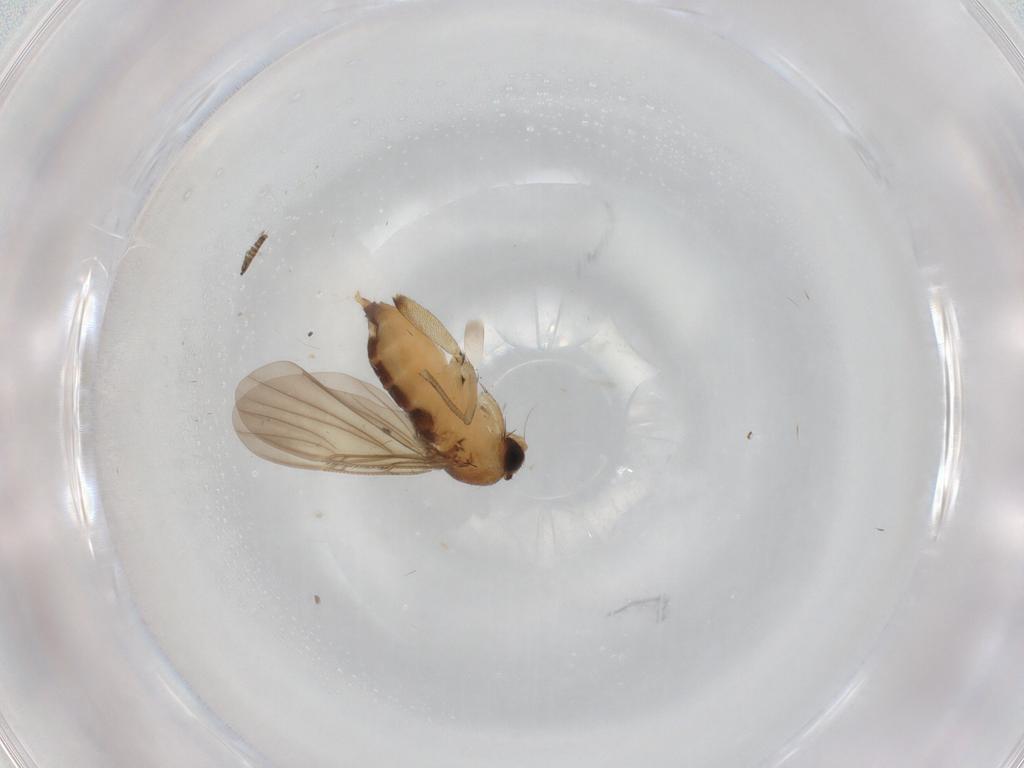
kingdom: Animalia
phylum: Arthropoda
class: Insecta
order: Diptera
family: Phoridae
